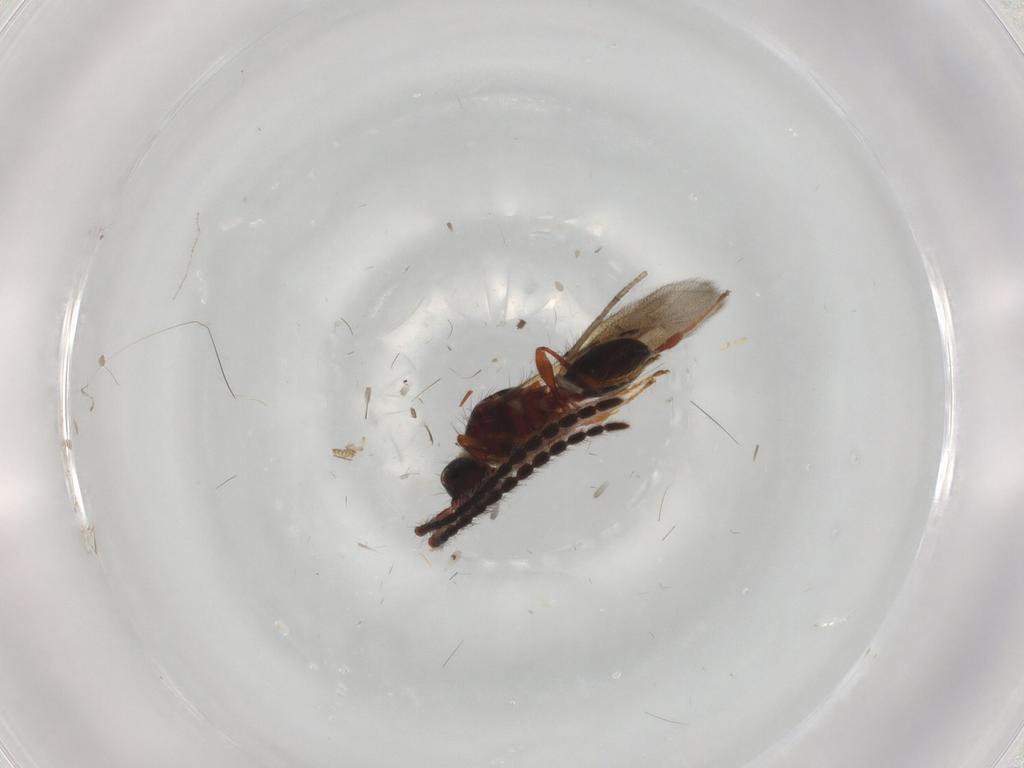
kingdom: Animalia
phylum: Arthropoda
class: Insecta
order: Hymenoptera
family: Diapriidae
